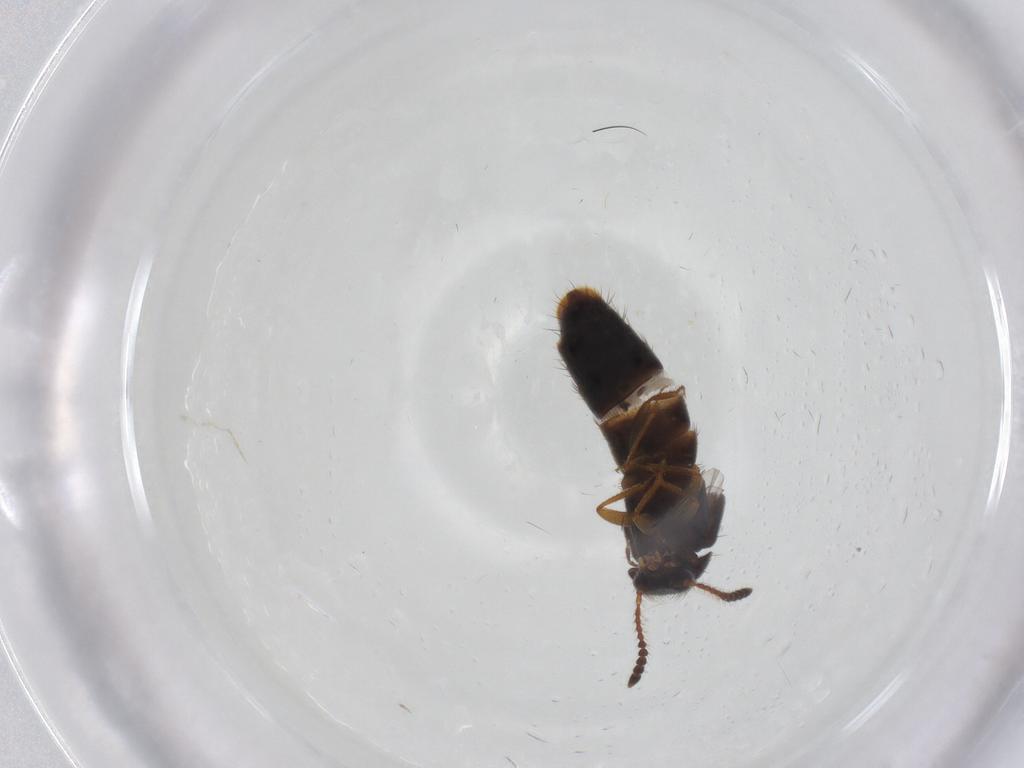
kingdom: Animalia
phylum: Arthropoda
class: Insecta
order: Coleoptera
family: Staphylinidae
